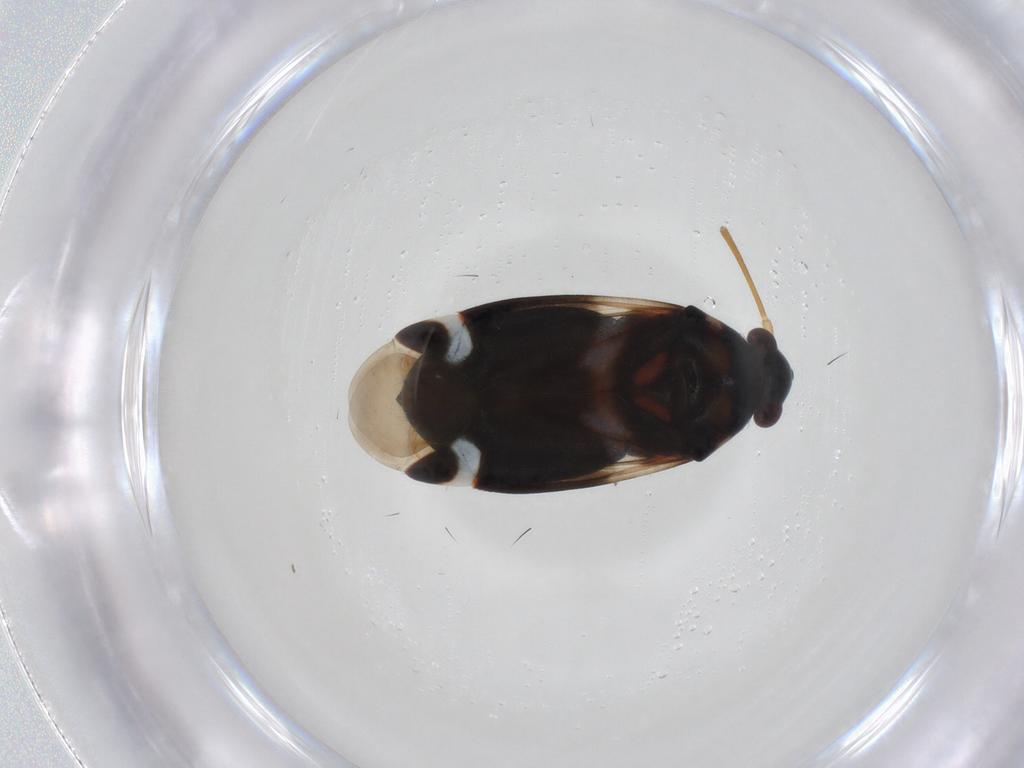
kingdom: Animalia
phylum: Arthropoda
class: Insecta
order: Hemiptera
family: Miridae
